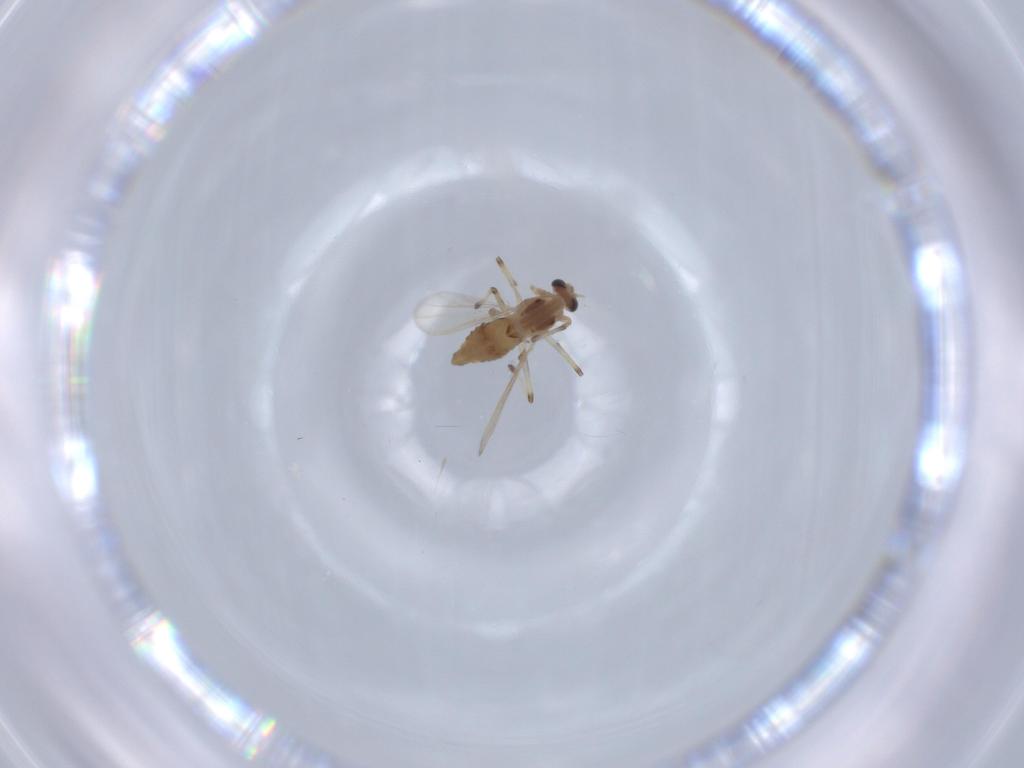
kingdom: Animalia
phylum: Arthropoda
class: Insecta
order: Diptera
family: Chironomidae
